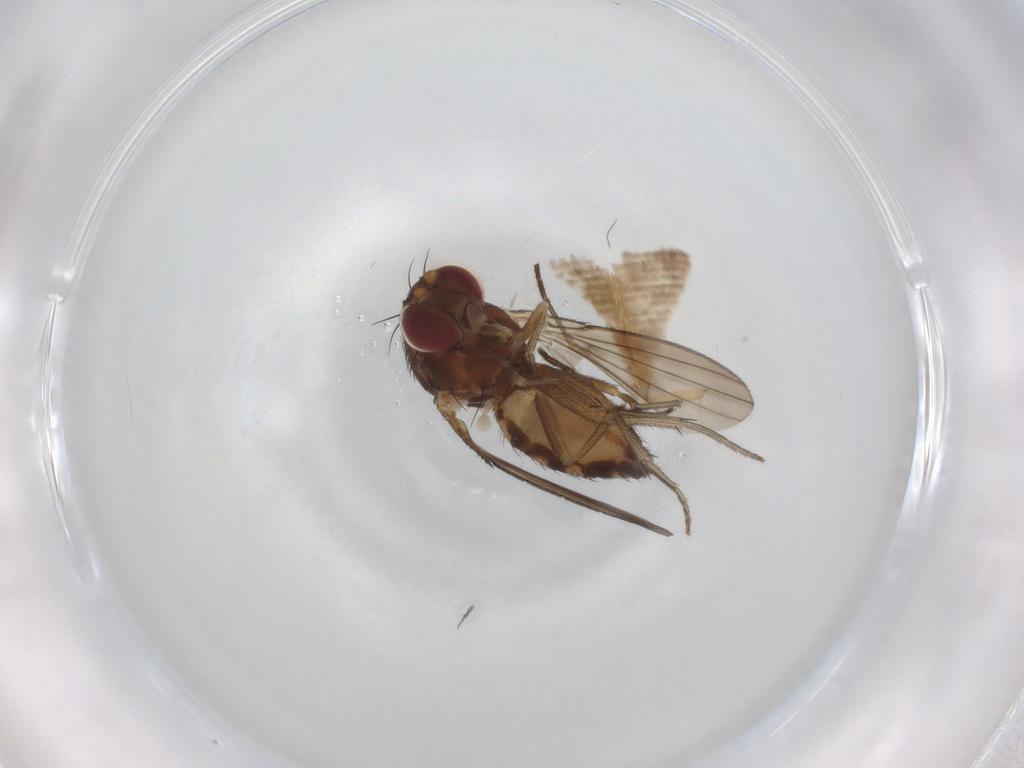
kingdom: Animalia
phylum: Arthropoda
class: Insecta
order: Diptera
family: Curtonotidae
